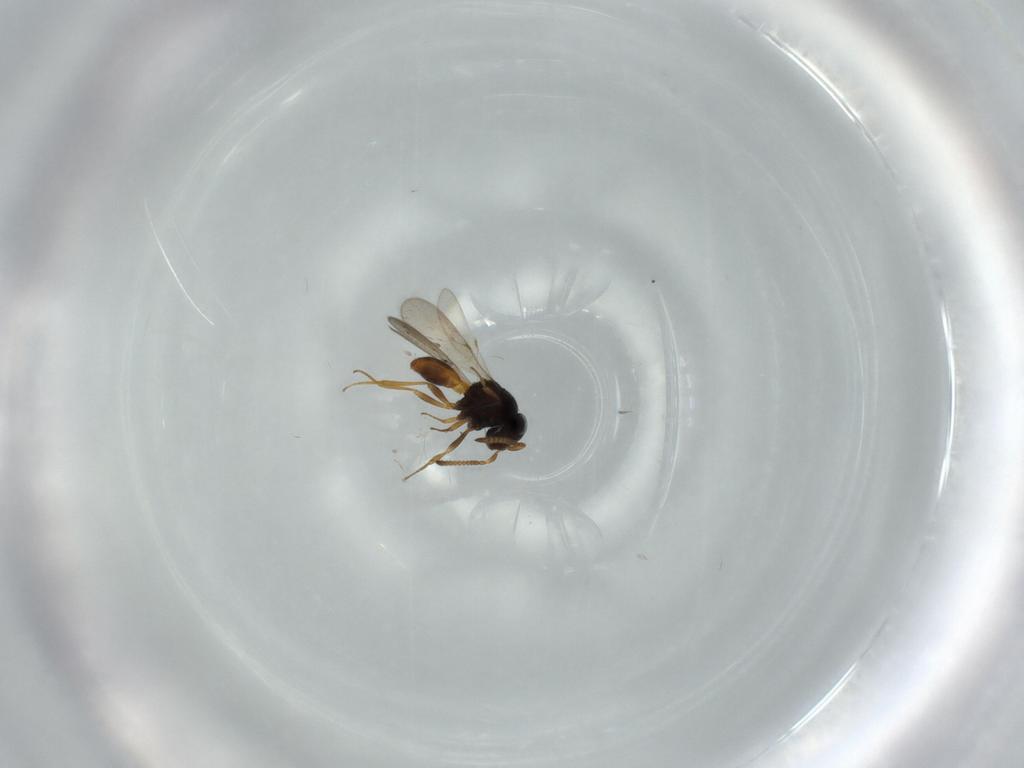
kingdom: Animalia
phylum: Arthropoda
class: Insecta
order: Hymenoptera
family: Scelionidae
